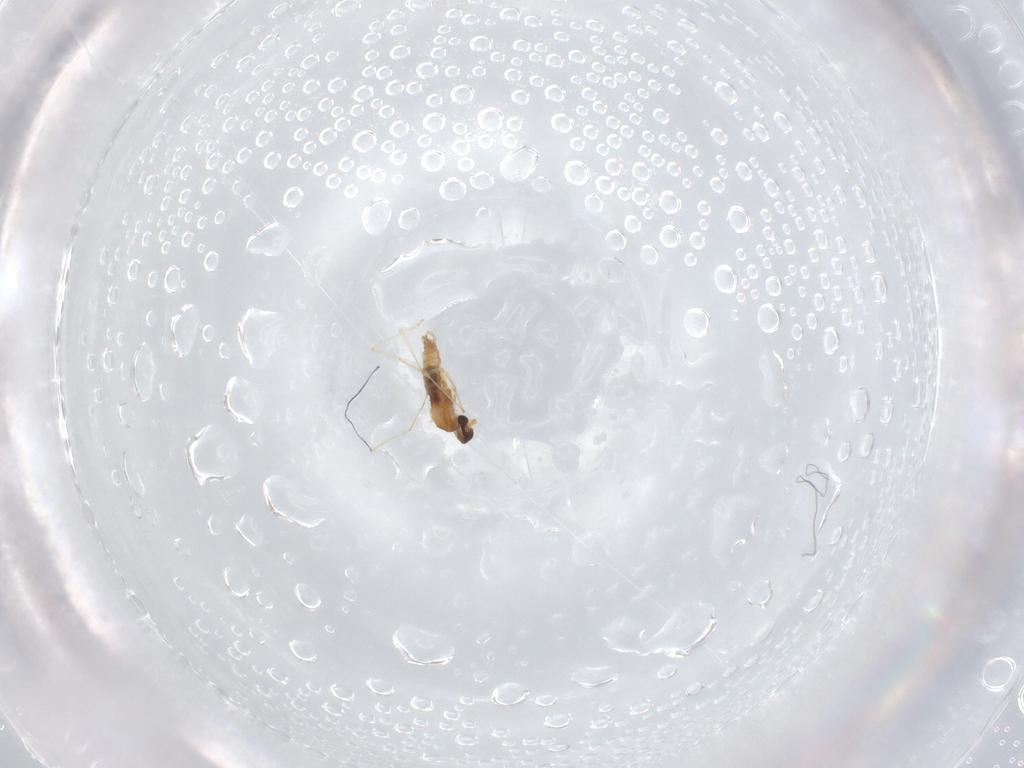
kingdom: Animalia
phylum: Arthropoda
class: Insecta
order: Diptera
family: Cecidomyiidae
